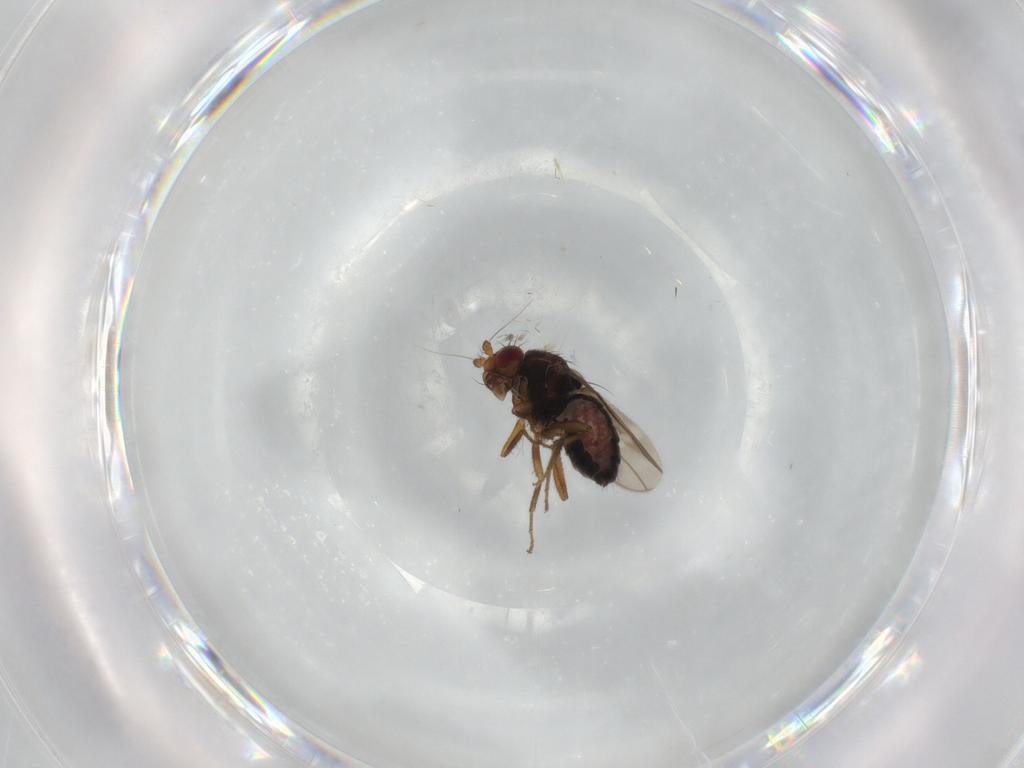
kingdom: Animalia
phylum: Arthropoda
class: Insecta
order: Diptera
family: Sphaeroceridae
